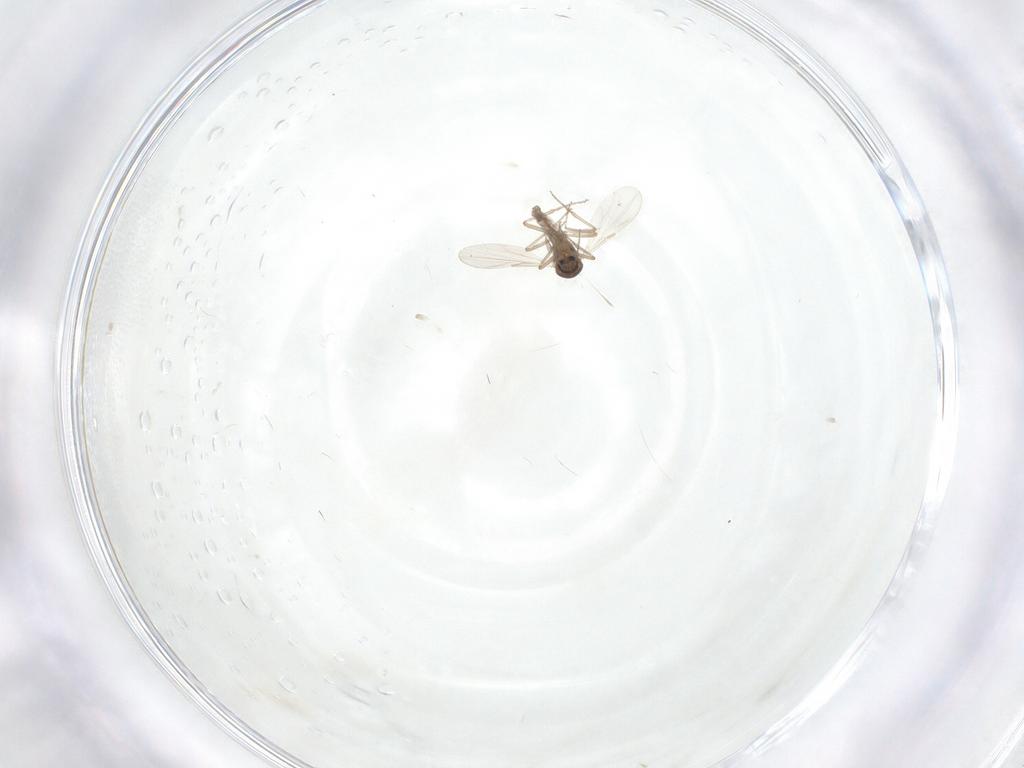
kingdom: Animalia
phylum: Arthropoda
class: Insecta
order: Diptera
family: Ceratopogonidae
